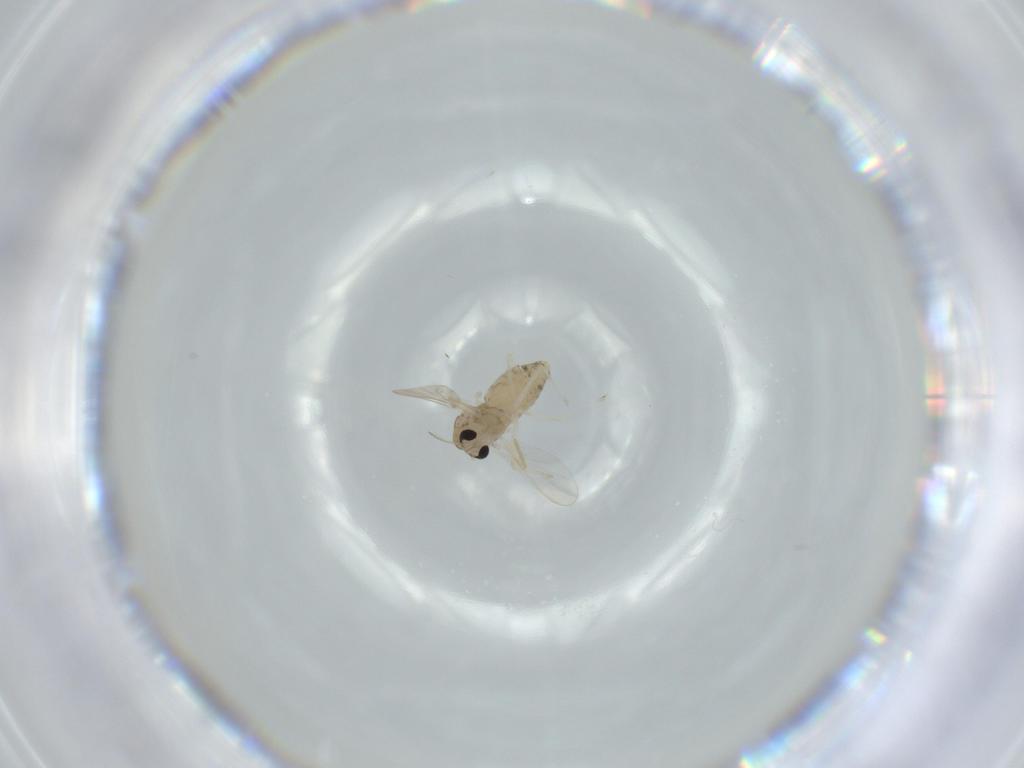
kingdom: Animalia
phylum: Arthropoda
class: Insecta
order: Diptera
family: Chironomidae
